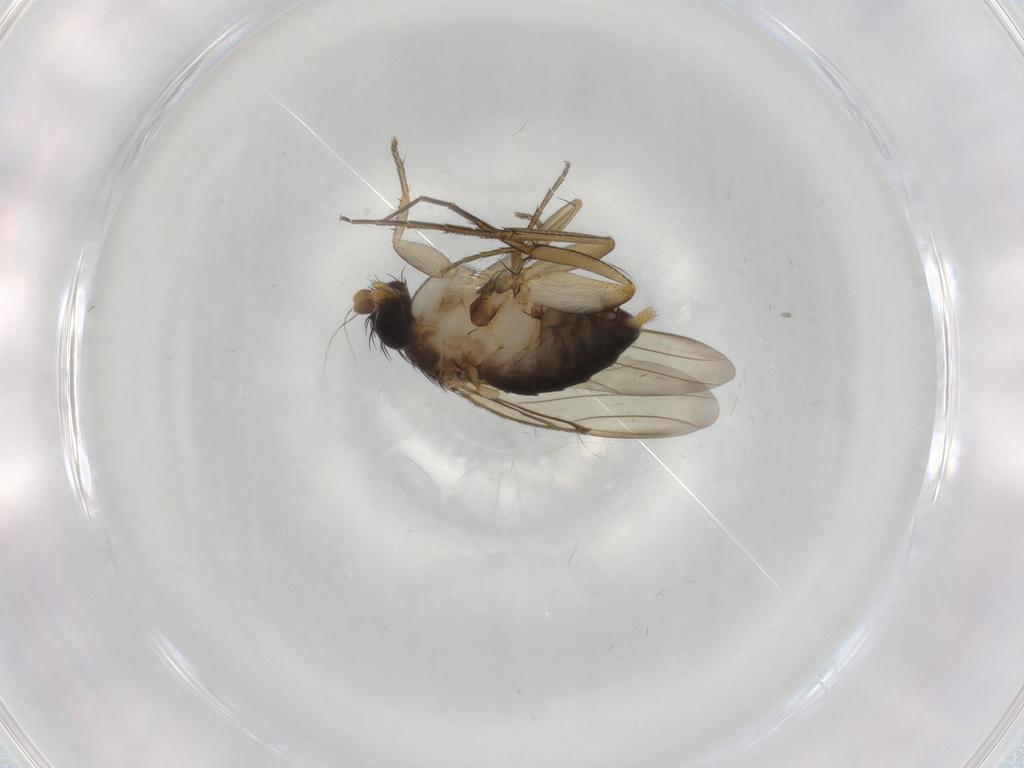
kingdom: Animalia
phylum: Arthropoda
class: Insecta
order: Diptera
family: Phoridae
